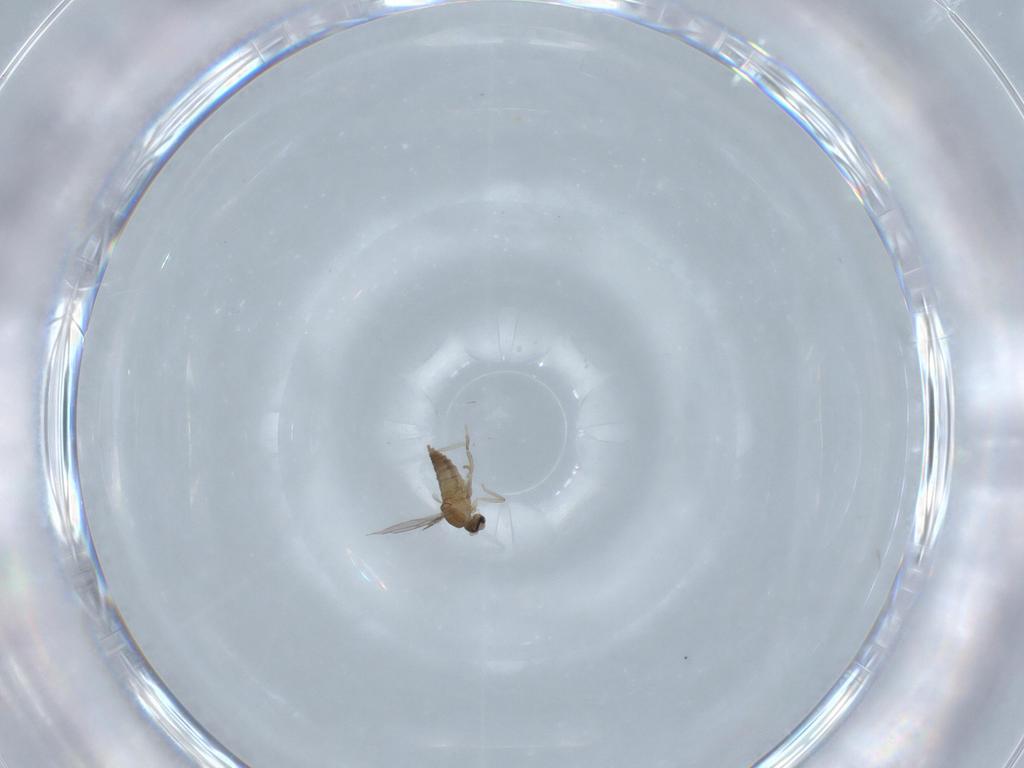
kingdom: Animalia
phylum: Arthropoda
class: Insecta
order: Diptera
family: Cecidomyiidae
